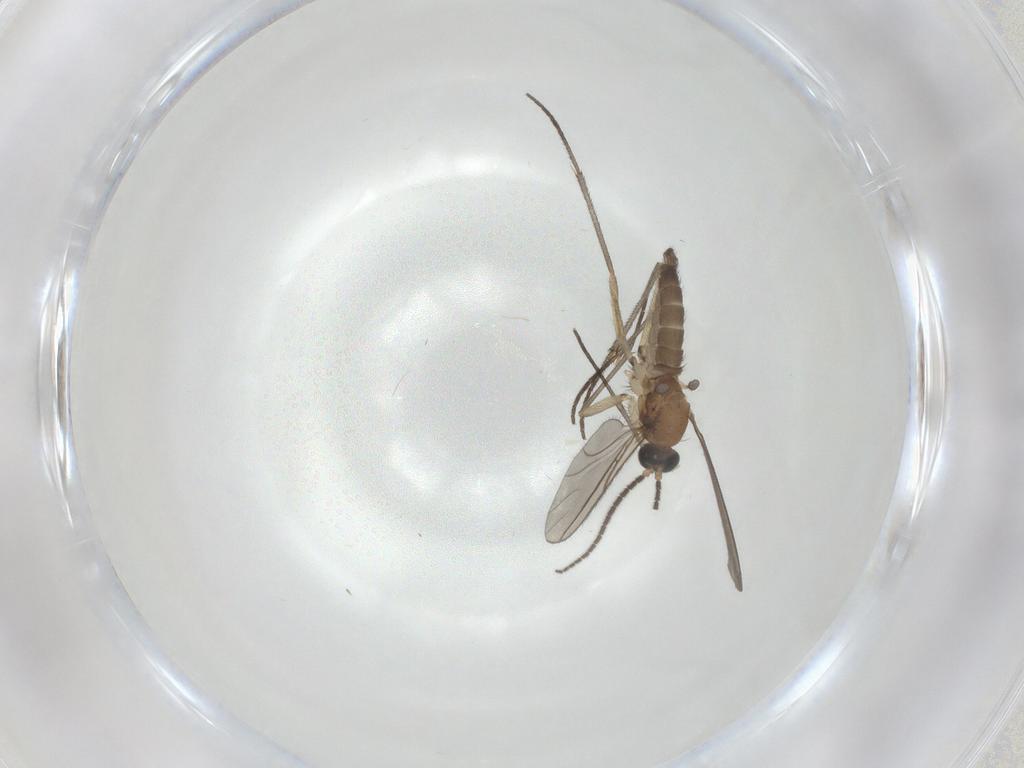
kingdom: Animalia
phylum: Arthropoda
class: Insecta
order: Diptera
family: Sciaridae
